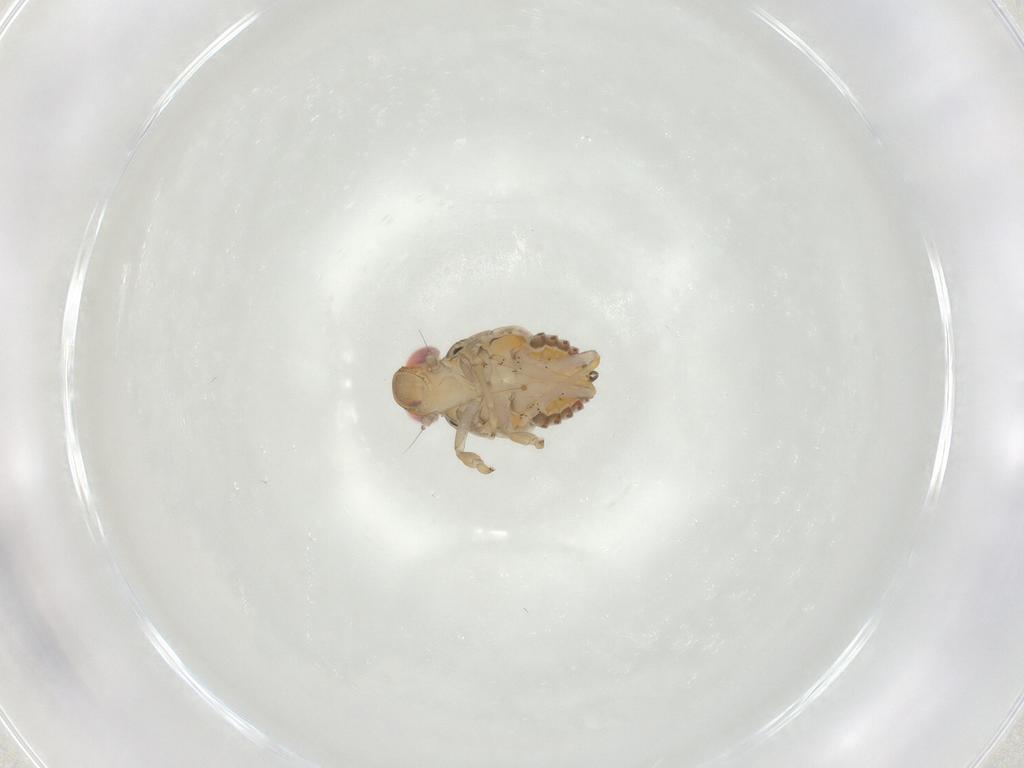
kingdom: Animalia
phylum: Arthropoda
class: Insecta
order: Hemiptera
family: Issidae
